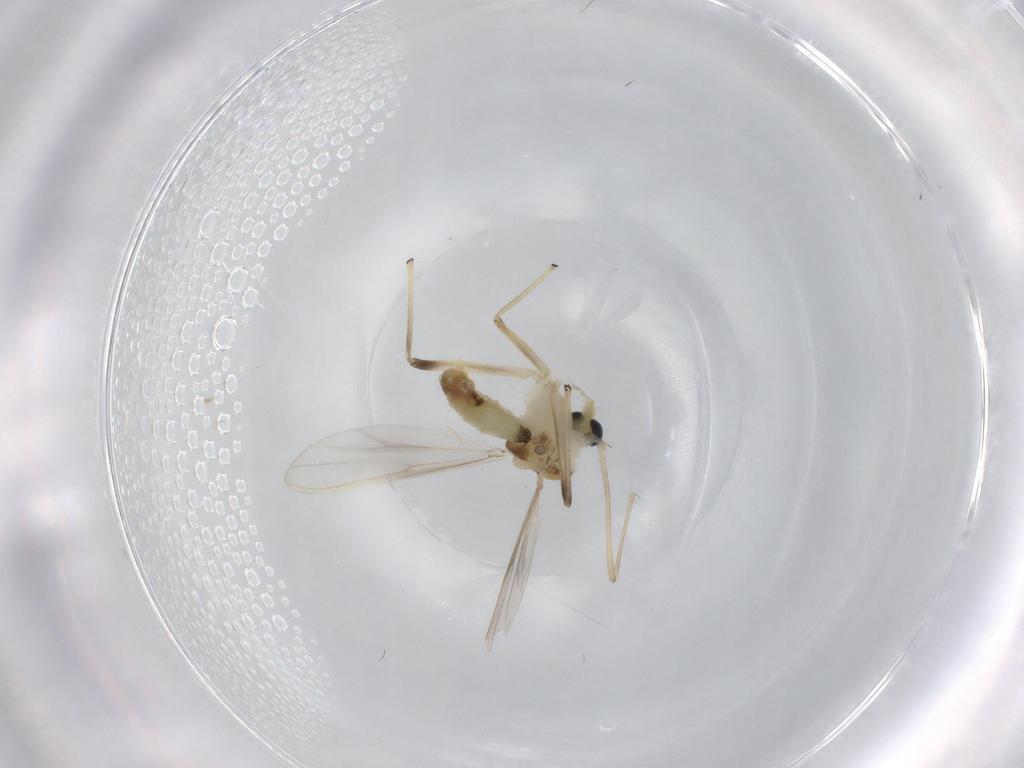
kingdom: Animalia
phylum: Arthropoda
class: Insecta
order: Diptera
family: Chironomidae
